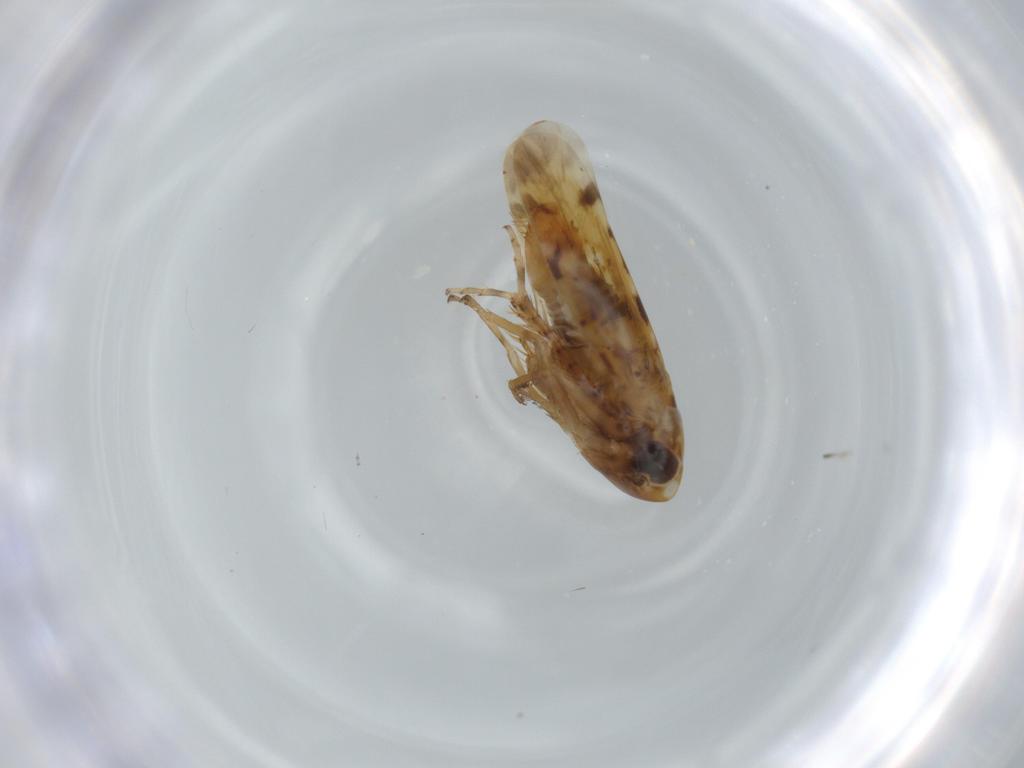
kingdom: Animalia
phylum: Arthropoda
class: Insecta
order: Hemiptera
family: Cicadellidae
